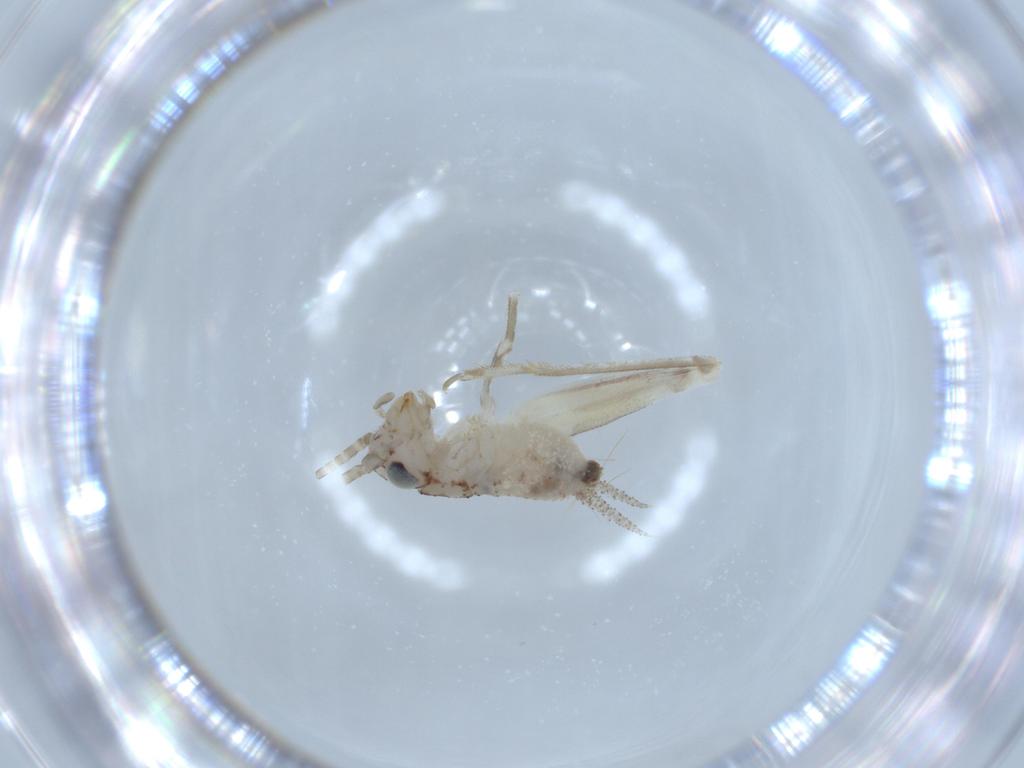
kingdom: Animalia
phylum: Arthropoda
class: Insecta
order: Orthoptera
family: Trigonidiidae
